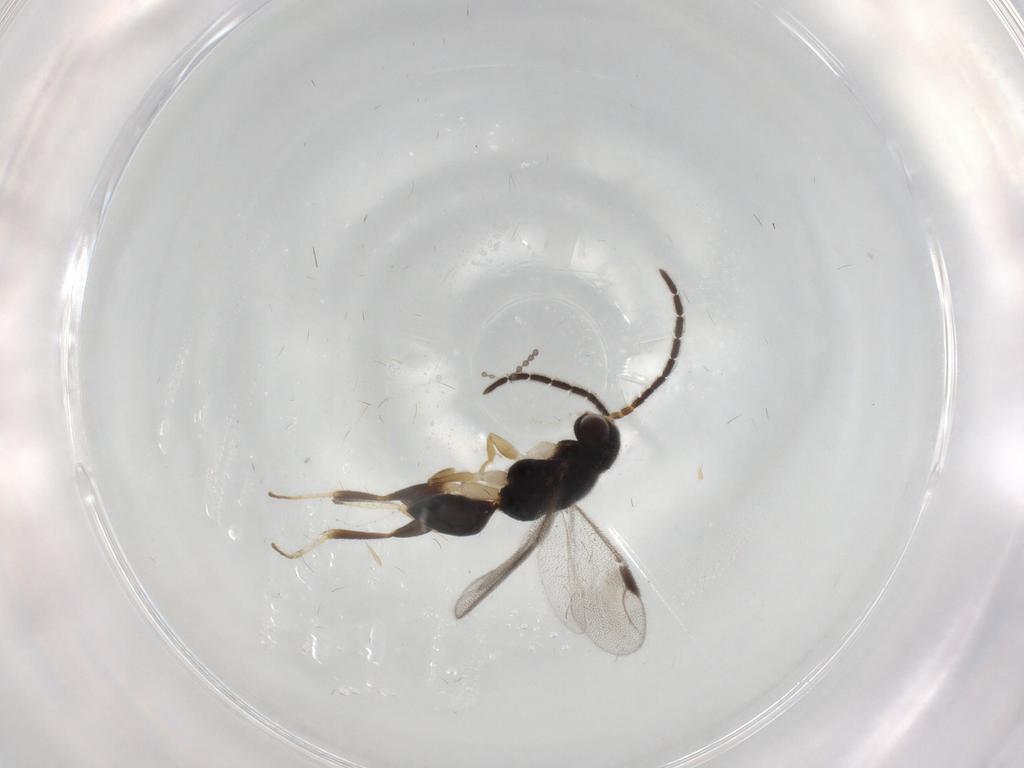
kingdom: Animalia
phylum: Arthropoda
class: Insecta
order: Hymenoptera
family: Dryinidae
